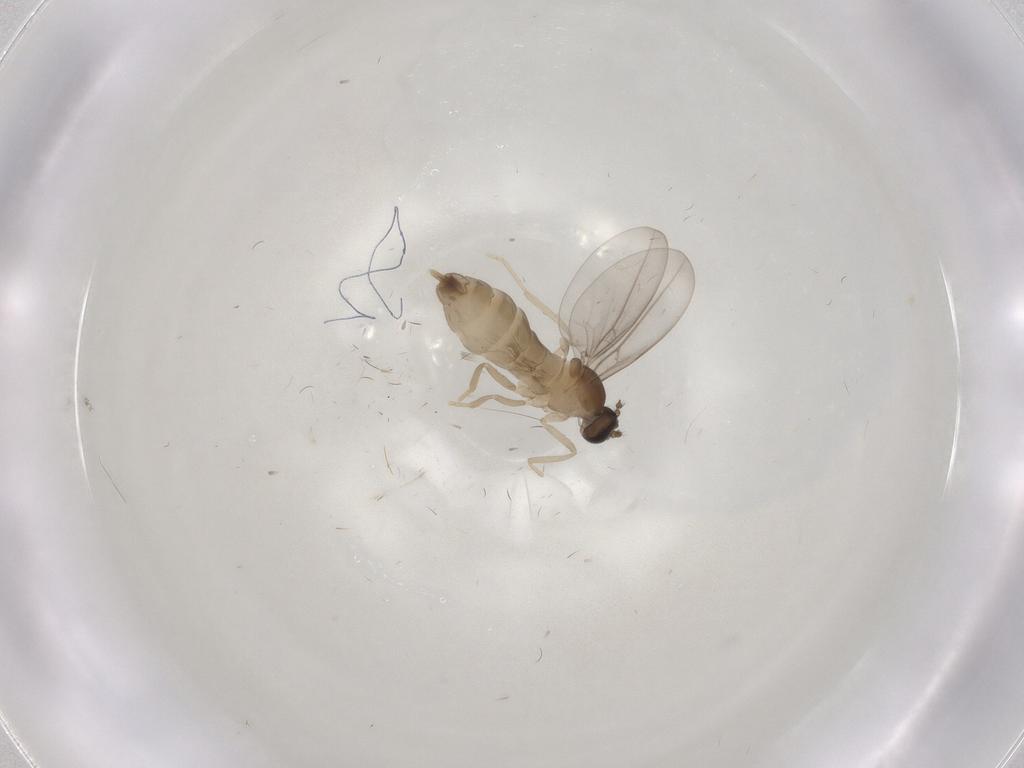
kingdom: Animalia
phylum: Arthropoda
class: Insecta
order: Diptera
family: Cecidomyiidae
